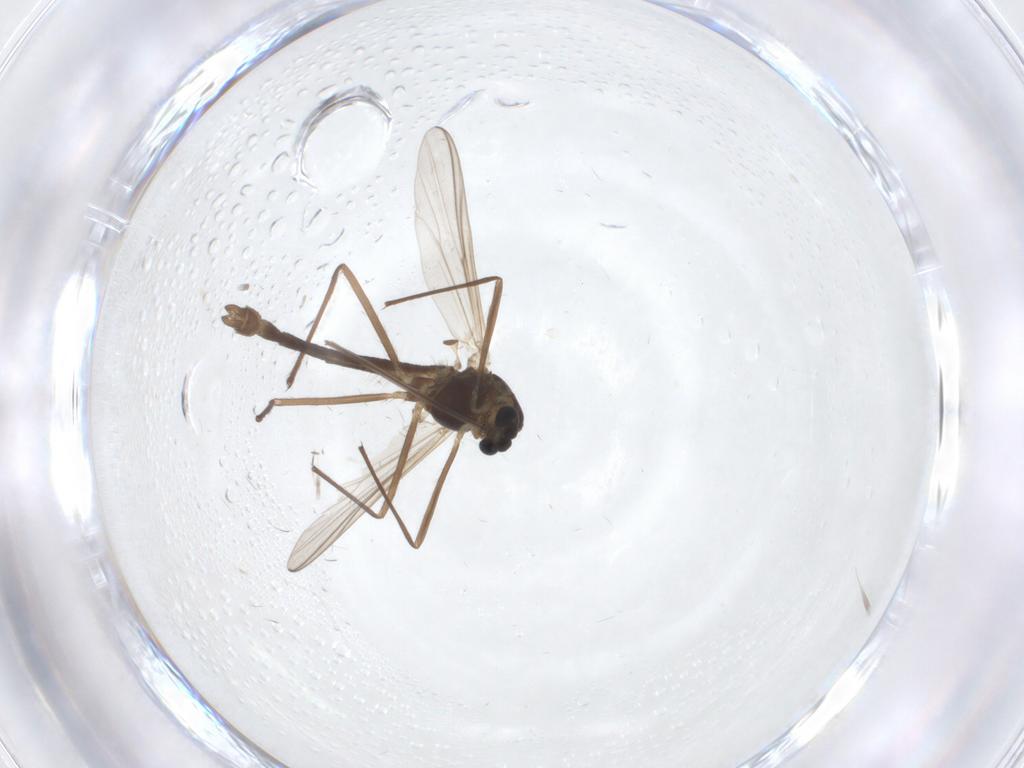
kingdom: Animalia
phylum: Arthropoda
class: Insecta
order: Diptera
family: Chironomidae
